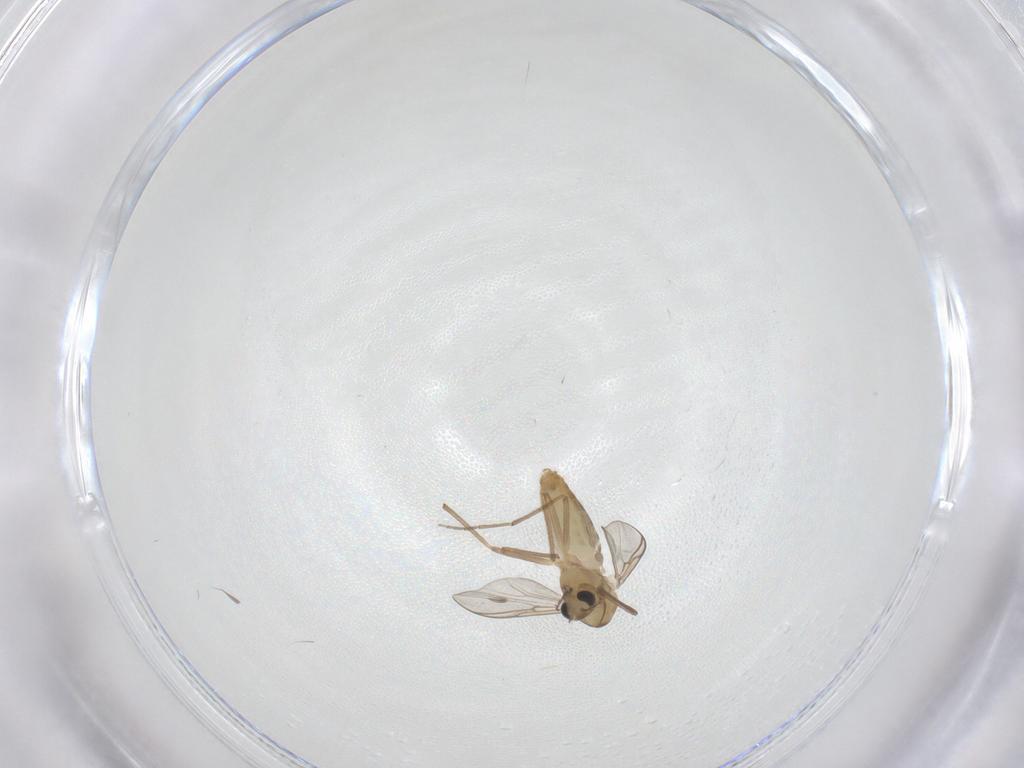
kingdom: Animalia
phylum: Arthropoda
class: Insecta
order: Diptera
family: Chironomidae
